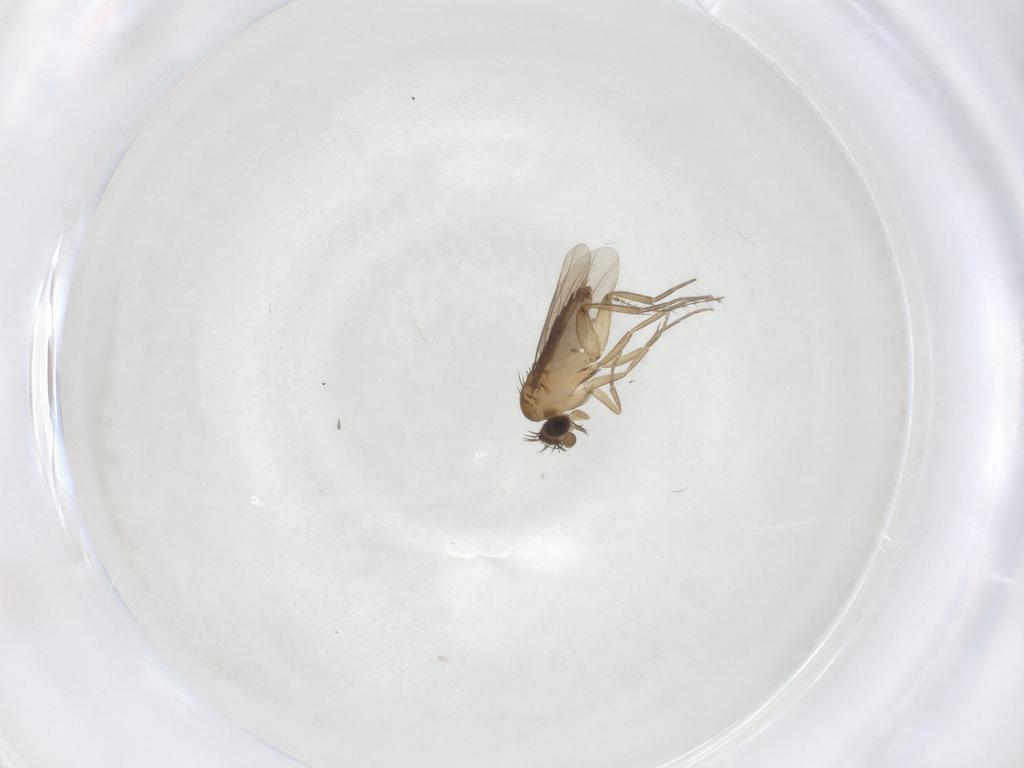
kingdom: Animalia
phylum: Arthropoda
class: Insecta
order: Diptera
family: Phoridae
